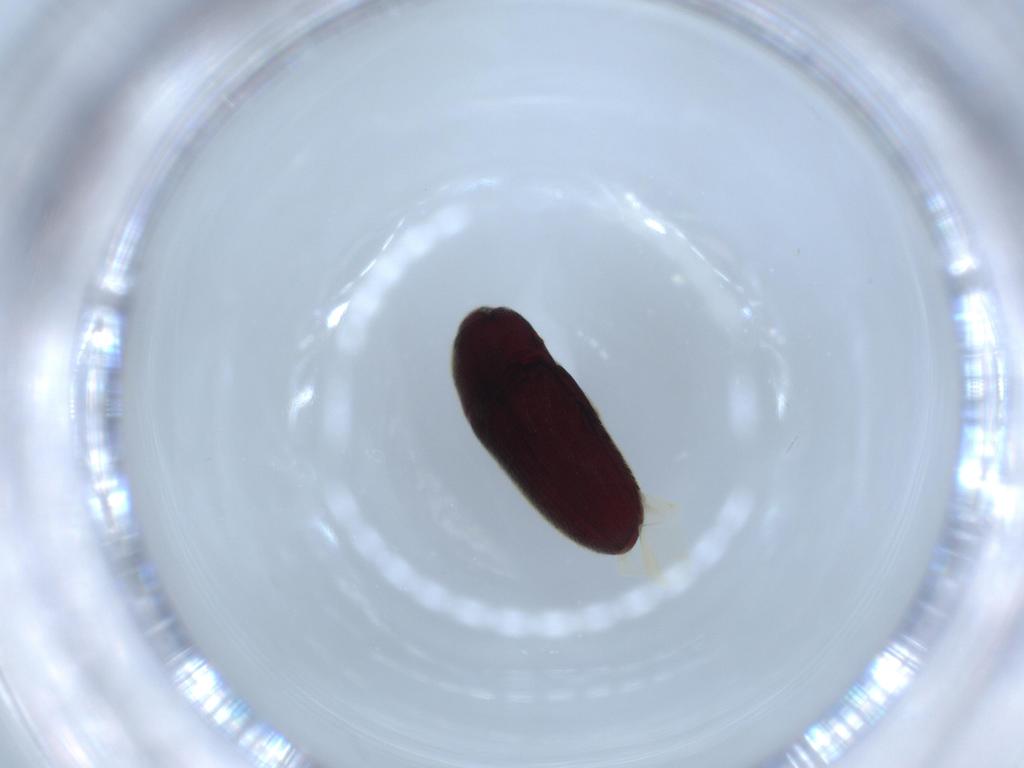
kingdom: Animalia
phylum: Arthropoda
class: Insecta
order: Coleoptera
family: Throscidae
